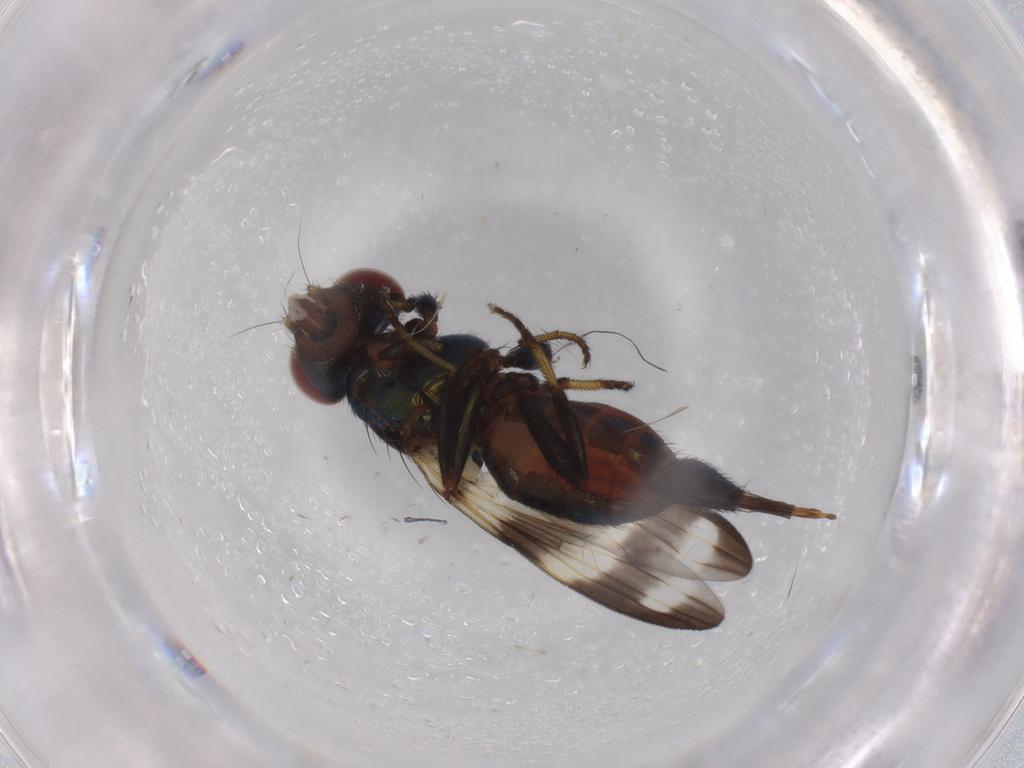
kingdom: Animalia
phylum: Arthropoda
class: Insecta
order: Diptera
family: Ulidiidae
